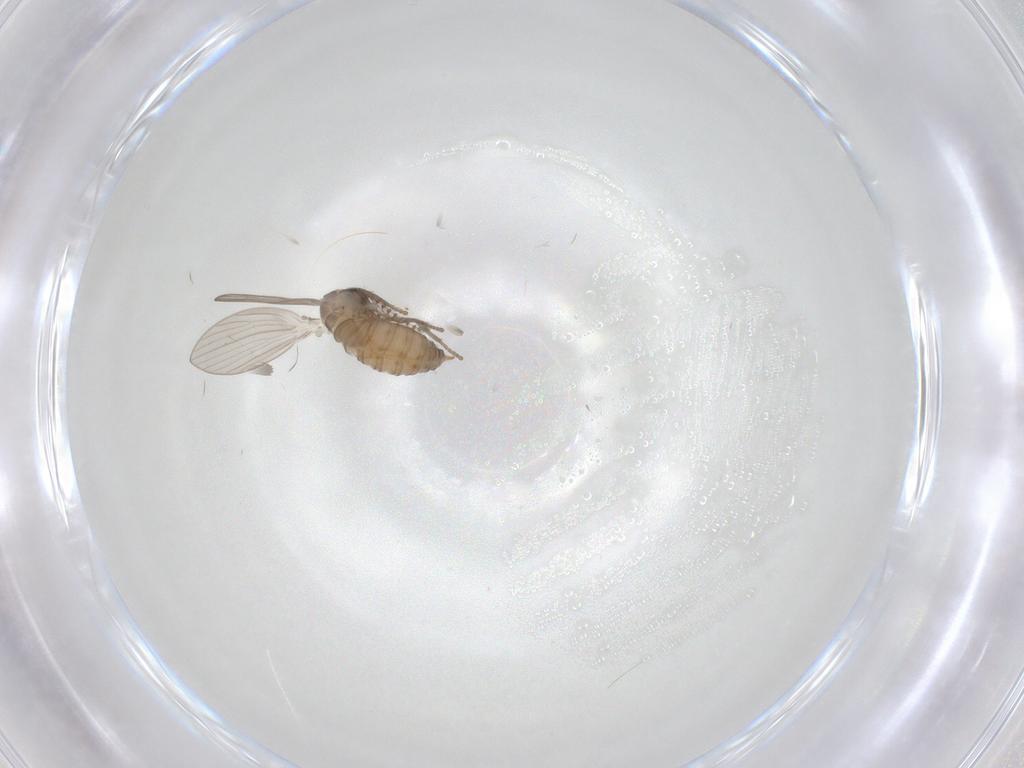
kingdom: Animalia
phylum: Arthropoda
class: Insecta
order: Diptera
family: Psychodidae
